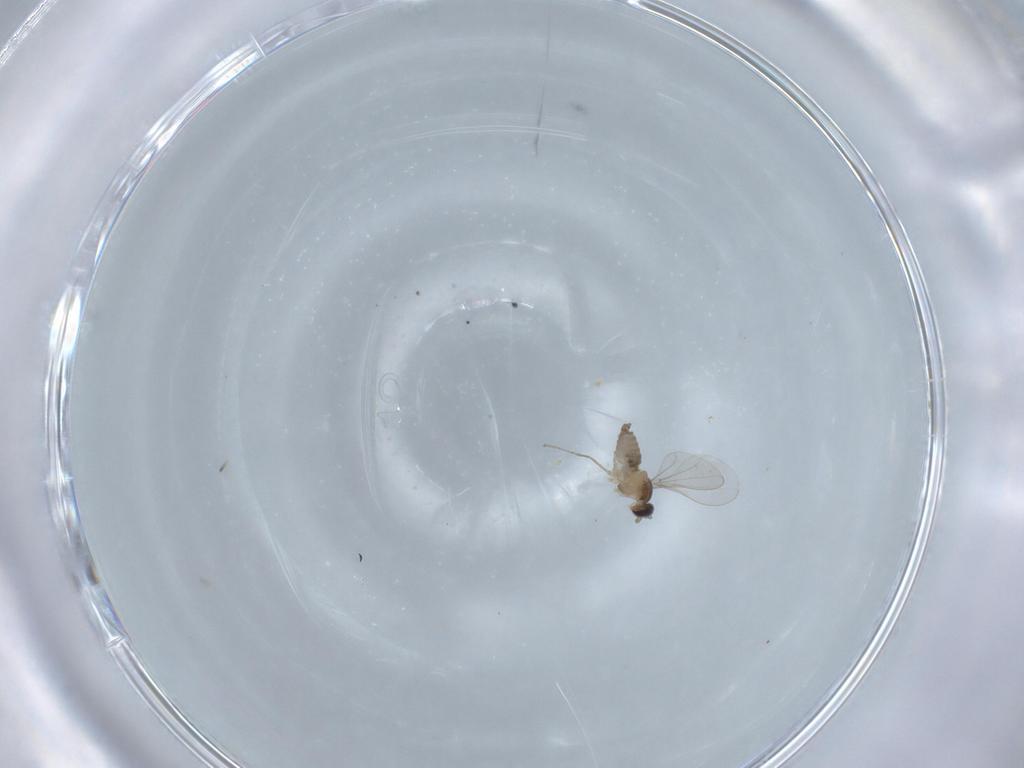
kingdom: Animalia
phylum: Arthropoda
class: Insecta
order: Diptera
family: Cecidomyiidae
